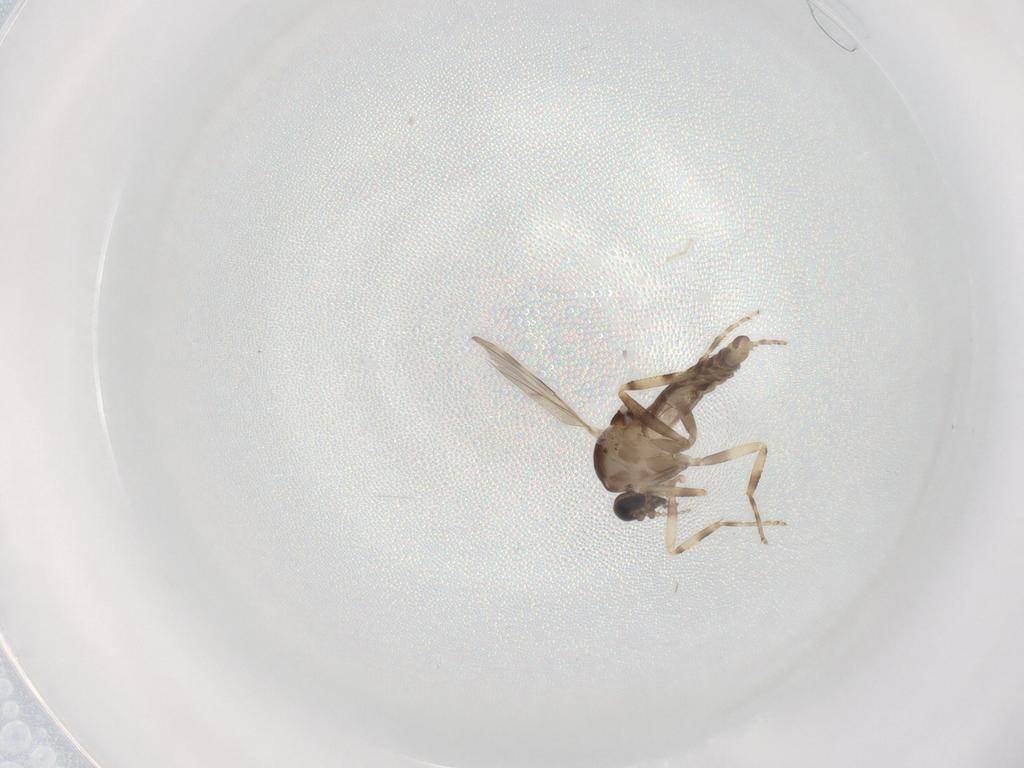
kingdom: Animalia
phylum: Arthropoda
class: Insecta
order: Diptera
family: Ceratopogonidae
